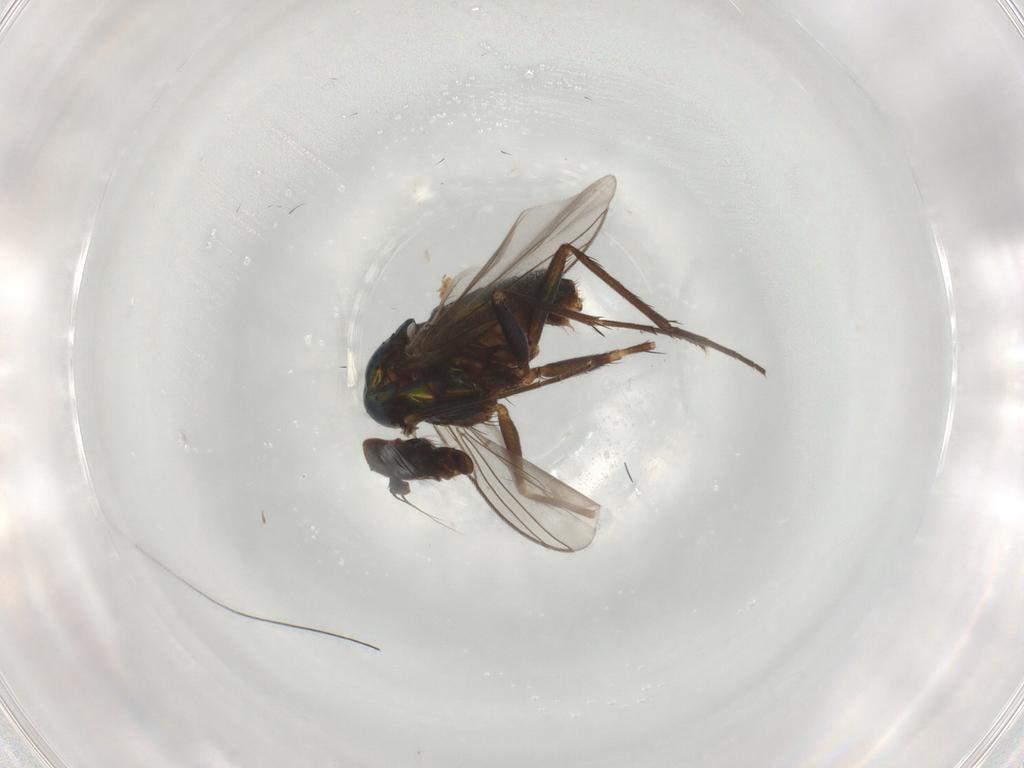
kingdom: Animalia
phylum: Arthropoda
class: Insecta
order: Diptera
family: Dolichopodidae
